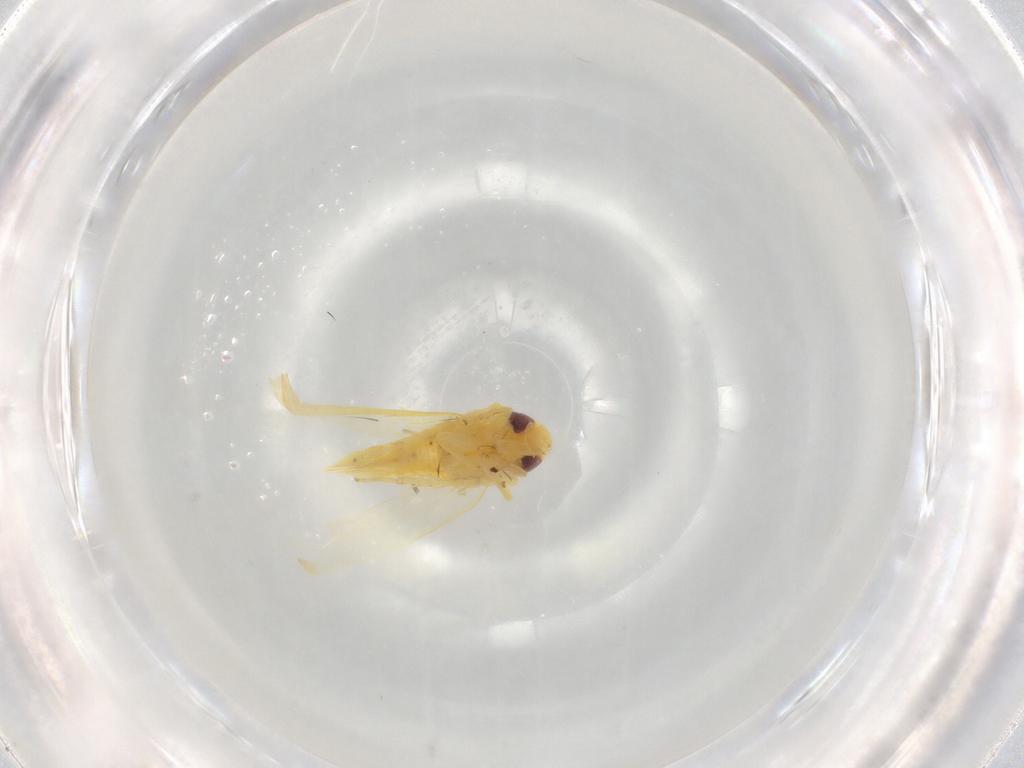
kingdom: Animalia
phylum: Arthropoda
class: Insecta
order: Hemiptera
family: Cicadellidae
